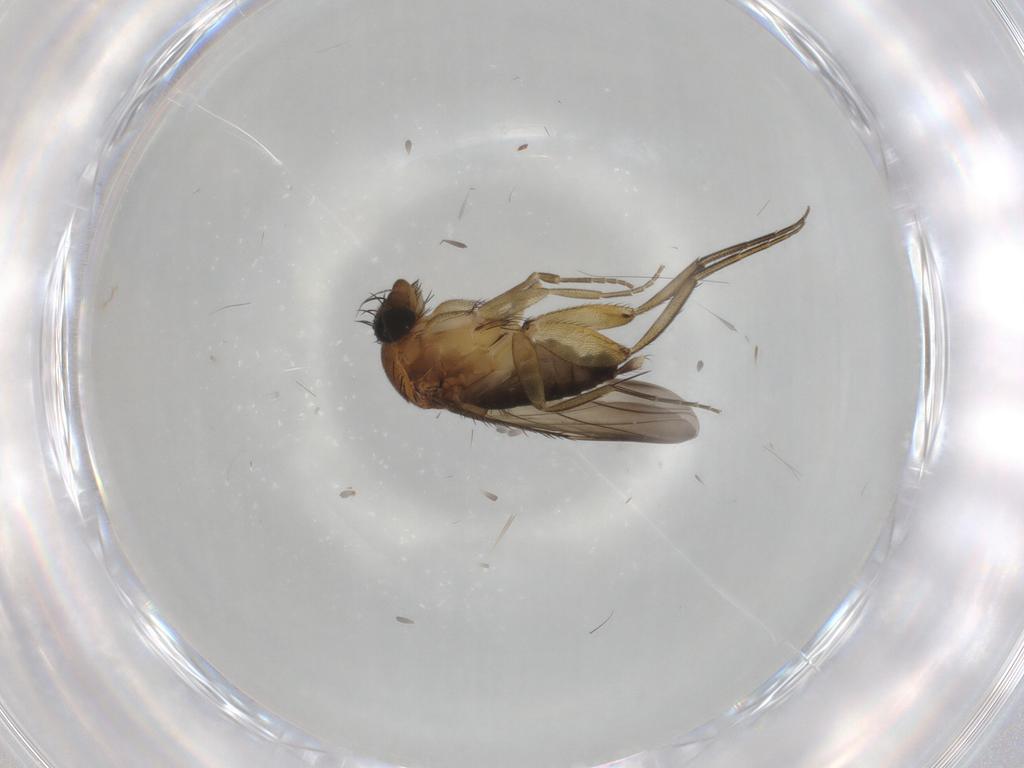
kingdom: Animalia
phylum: Arthropoda
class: Insecta
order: Diptera
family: Phoridae
